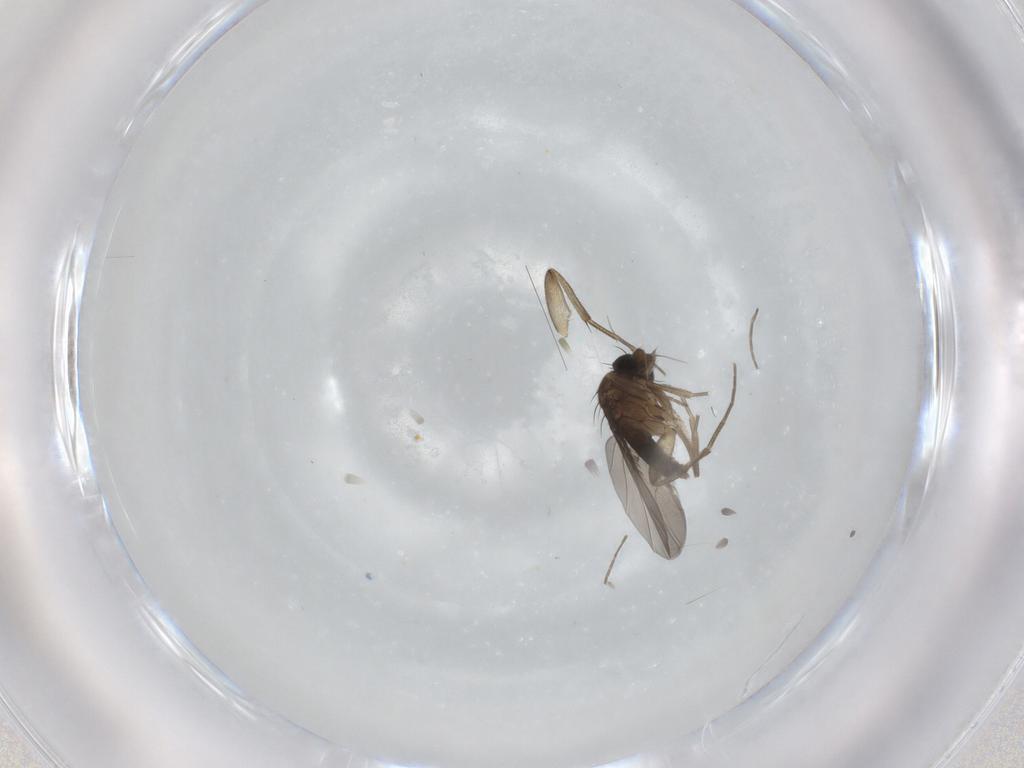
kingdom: Animalia
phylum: Arthropoda
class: Insecta
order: Diptera
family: Phoridae
